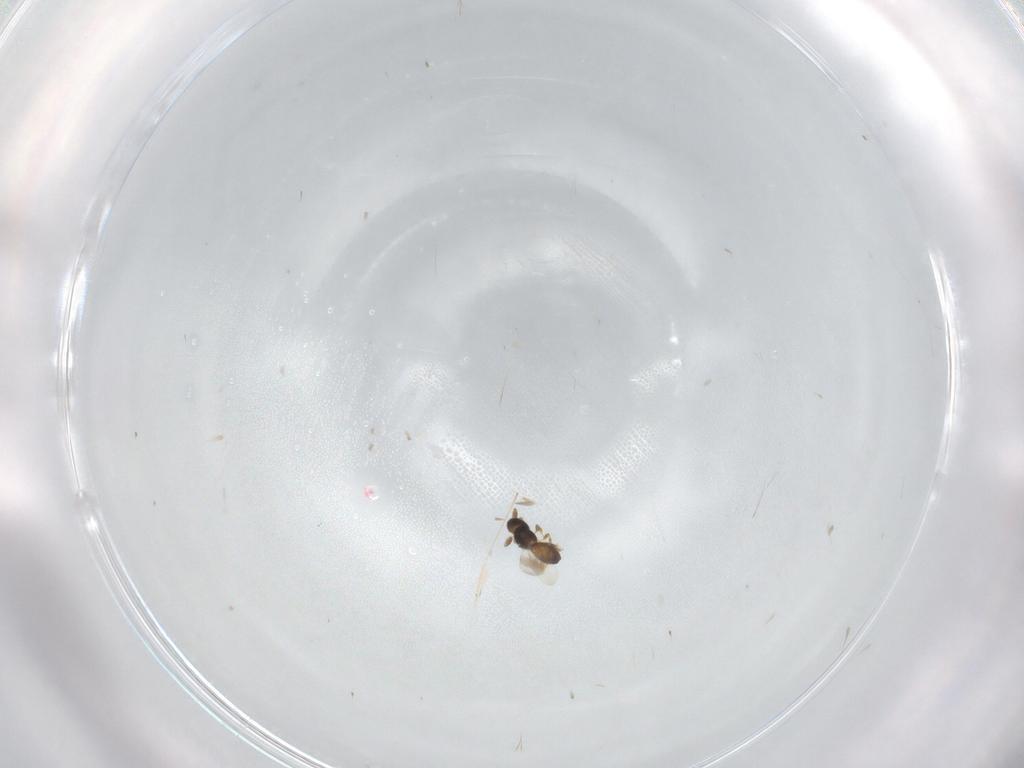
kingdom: Animalia
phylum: Arthropoda
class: Insecta
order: Hymenoptera
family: Platygastridae
